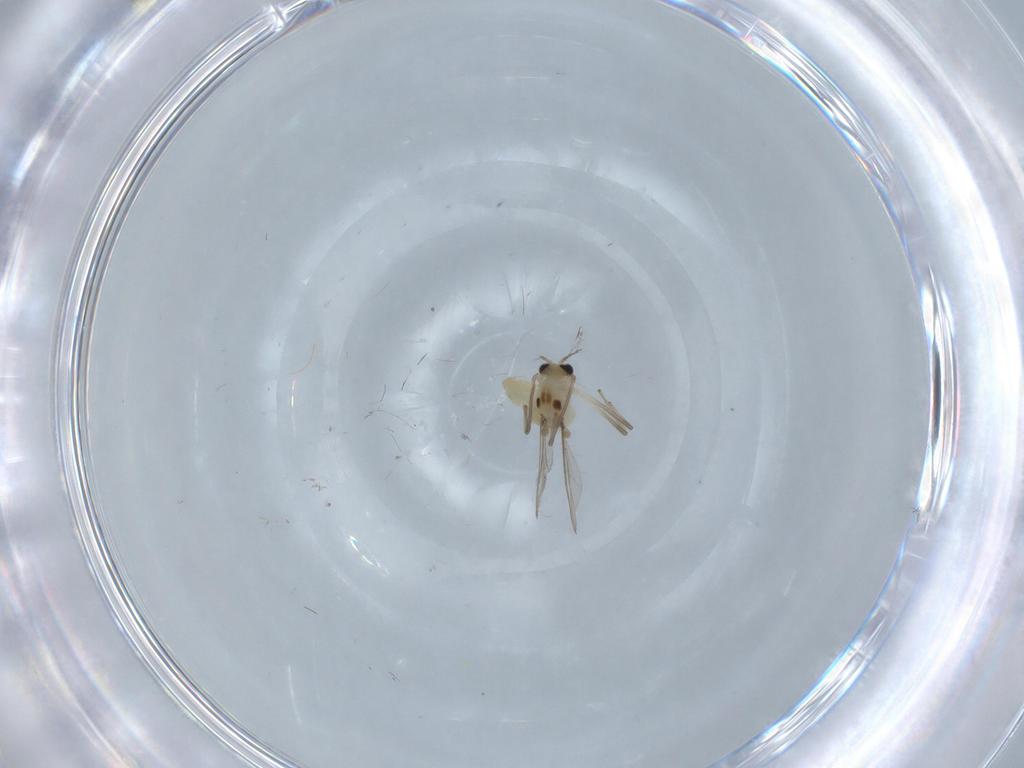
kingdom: Animalia
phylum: Arthropoda
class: Insecta
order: Diptera
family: Chironomidae
